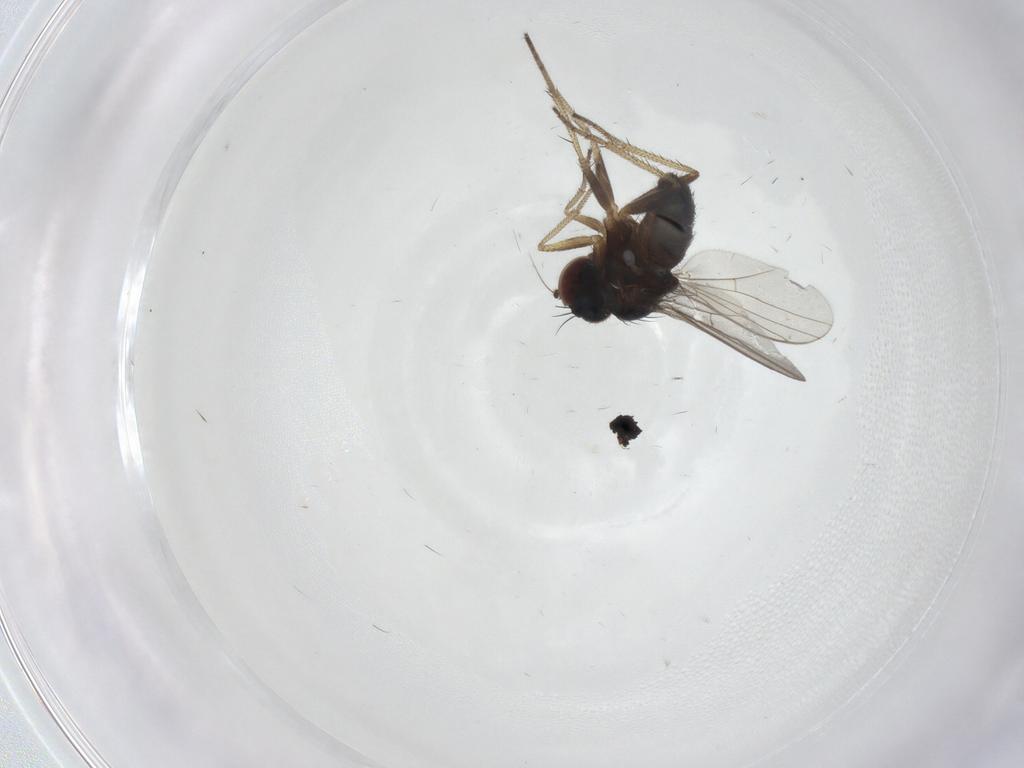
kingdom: Animalia
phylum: Arthropoda
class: Insecta
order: Diptera
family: Dolichopodidae
